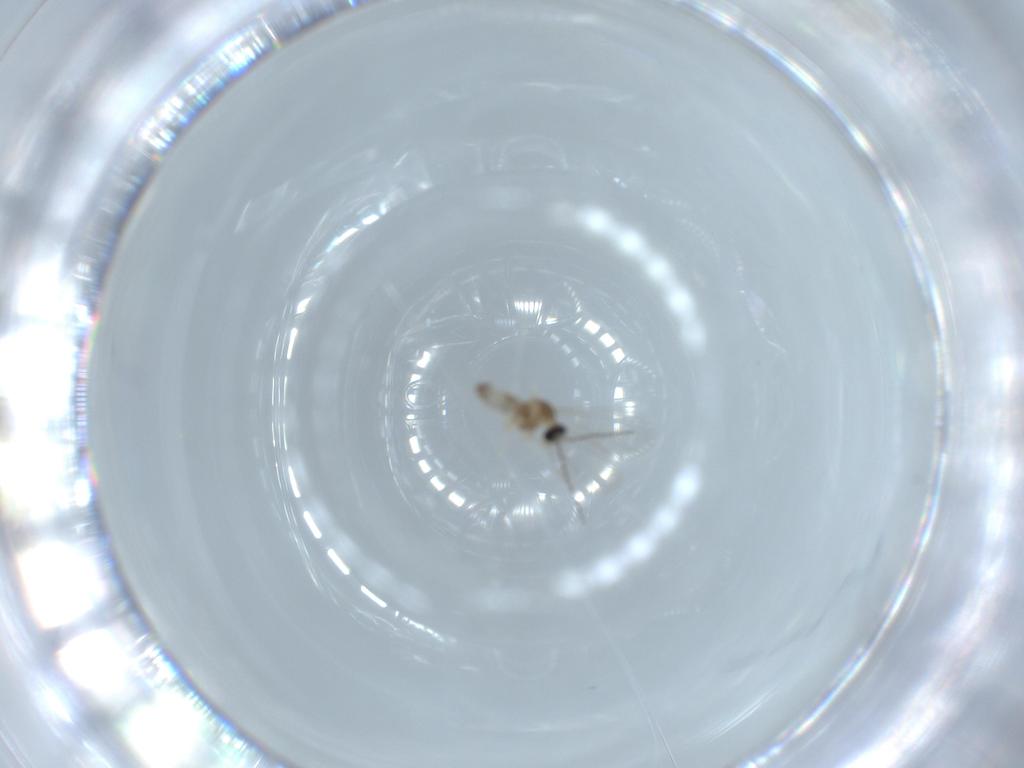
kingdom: Animalia
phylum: Arthropoda
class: Insecta
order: Diptera
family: Cecidomyiidae
